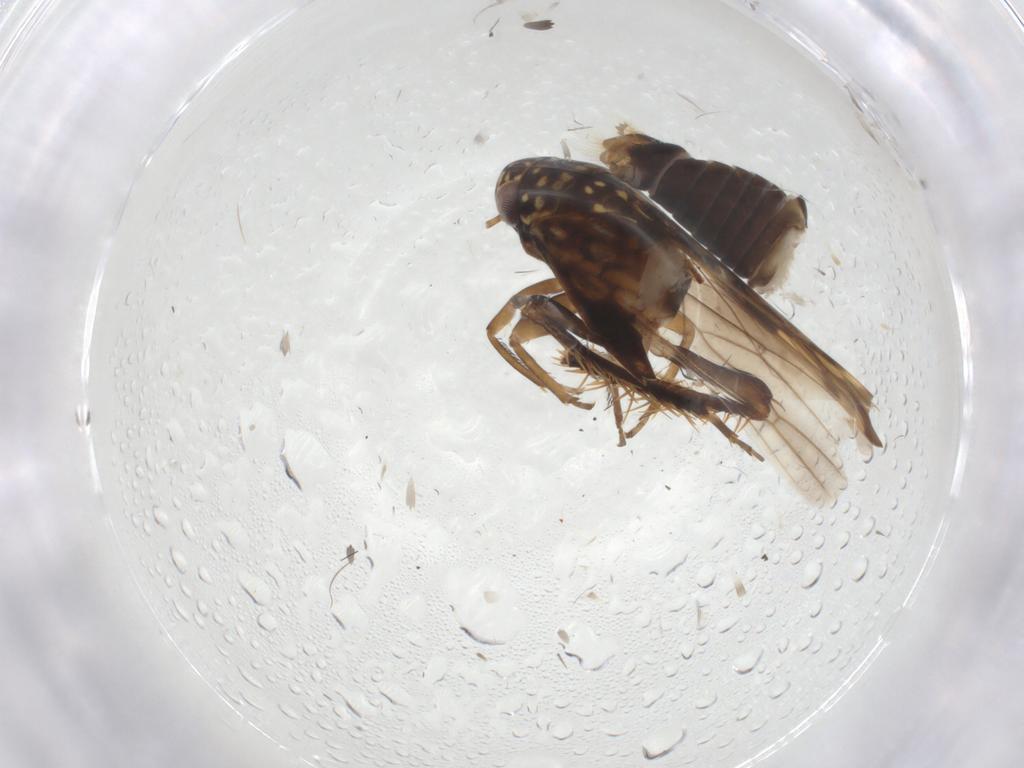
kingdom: Animalia
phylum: Arthropoda
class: Insecta
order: Hemiptera
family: Cicadellidae
